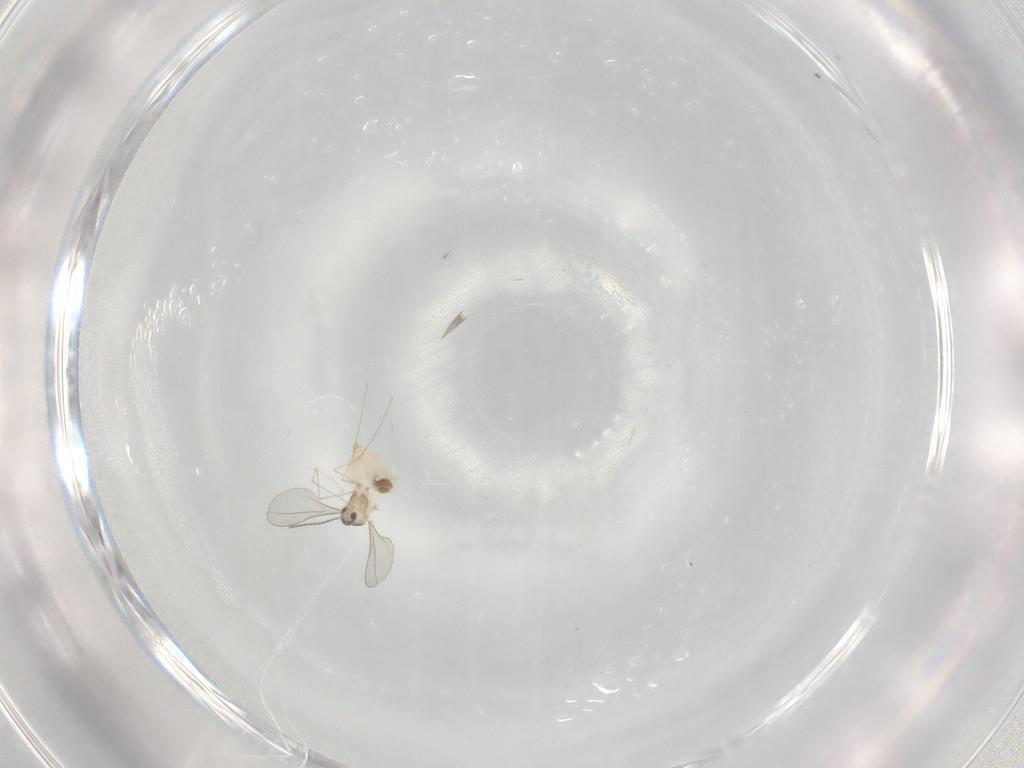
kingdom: Animalia
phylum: Arthropoda
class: Insecta
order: Diptera
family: Cecidomyiidae
